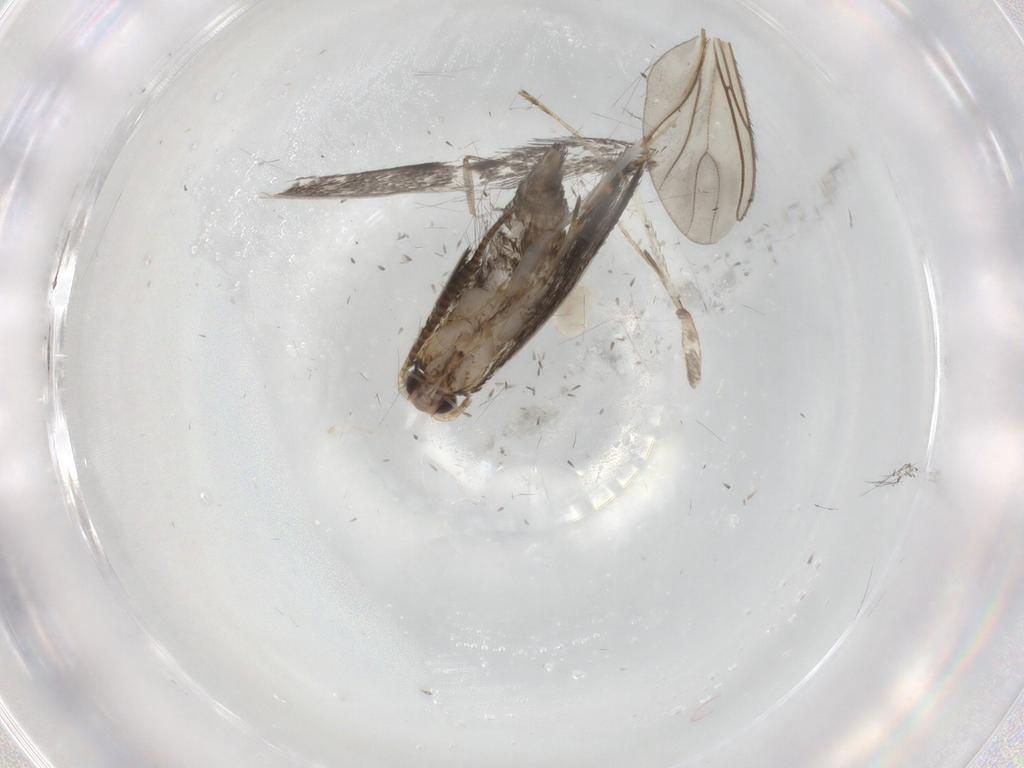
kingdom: Animalia
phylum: Arthropoda
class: Insecta
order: Lepidoptera
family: Tineidae
